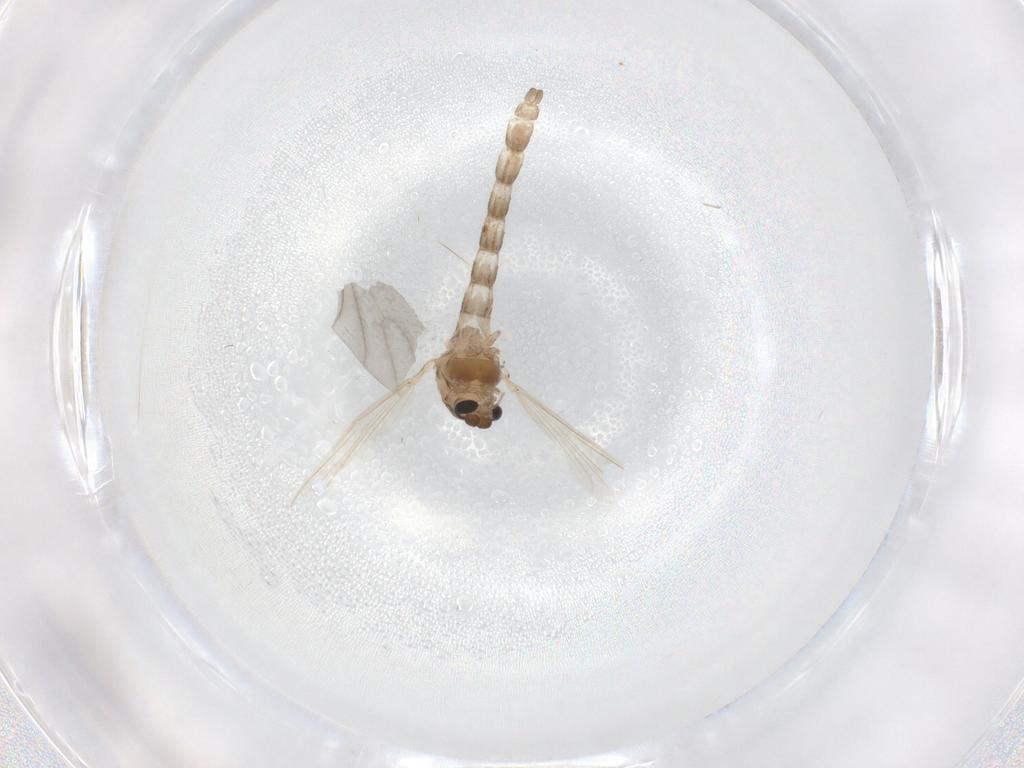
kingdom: Animalia
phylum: Arthropoda
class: Insecta
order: Diptera
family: Chironomidae
